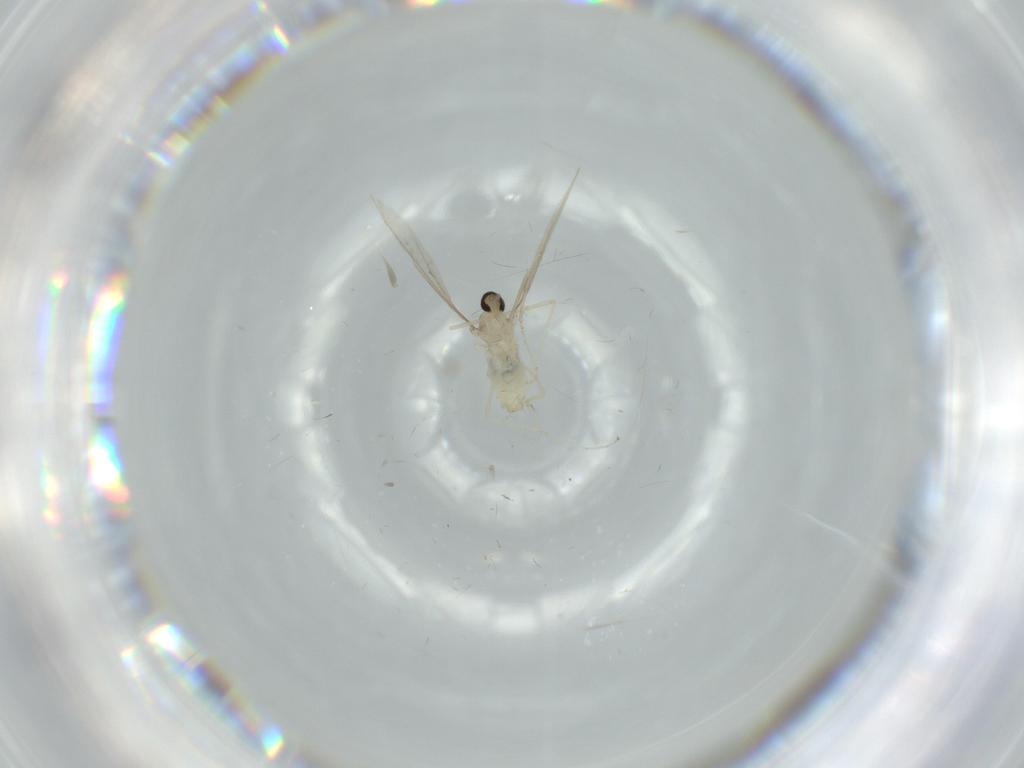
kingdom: Animalia
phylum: Arthropoda
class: Insecta
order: Diptera
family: Cecidomyiidae
